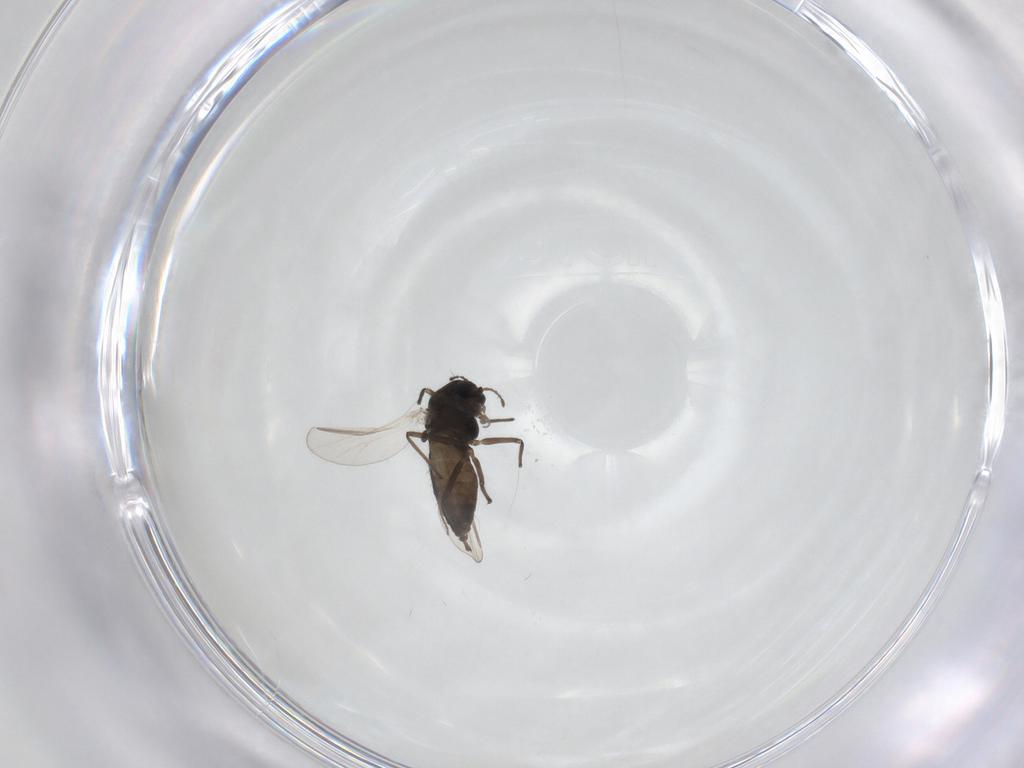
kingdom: Animalia
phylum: Arthropoda
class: Insecta
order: Diptera
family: Chironomidae
